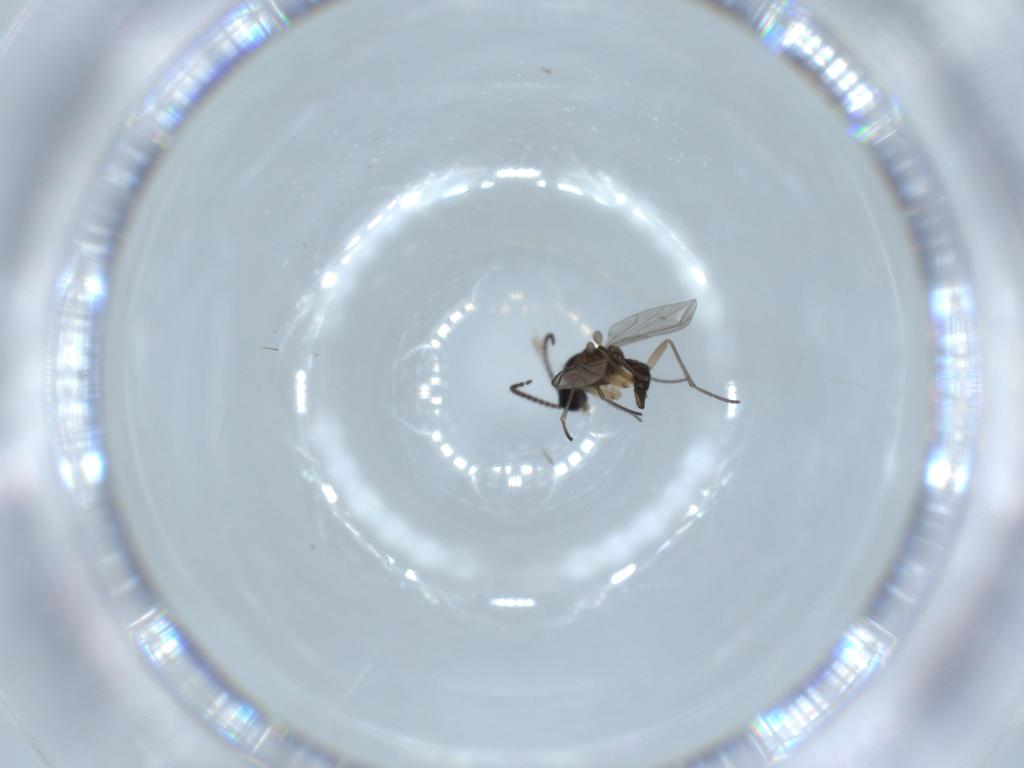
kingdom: Animalia
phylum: Arthropoda
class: Insecta
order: Diptera
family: Sciaridae
